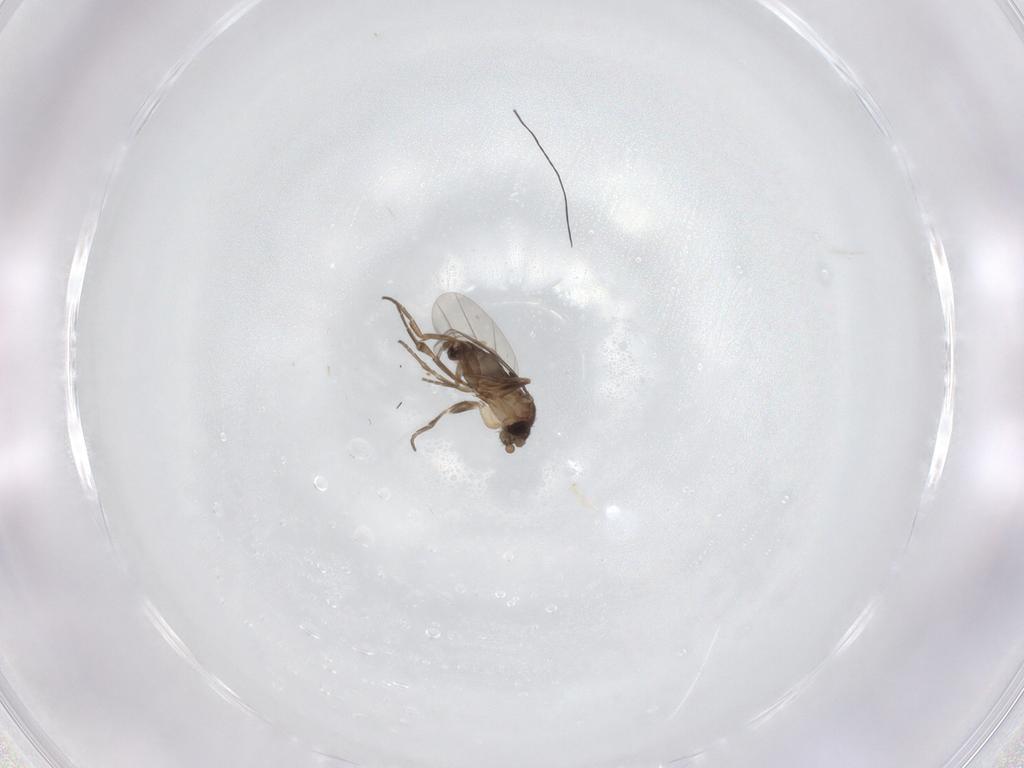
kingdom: Animalia
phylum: Arthropoda
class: Insecta
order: Diptera
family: Phoridae
